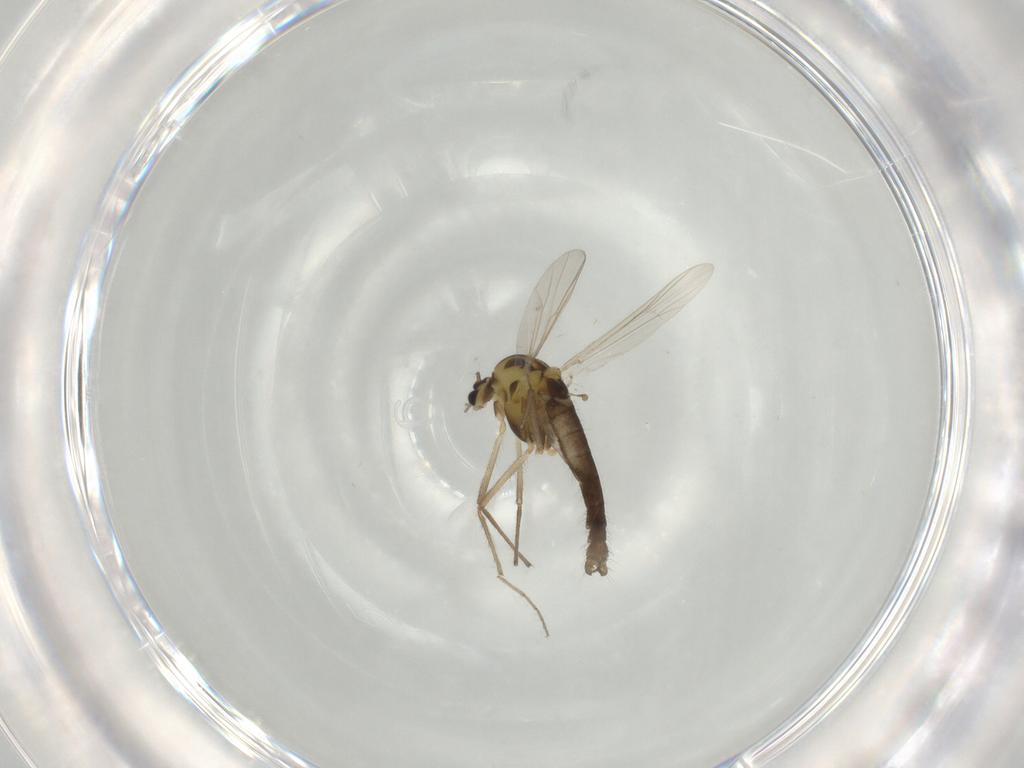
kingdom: Animalia
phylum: Arthropoda
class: Insecta
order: Diptera
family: Chironomidae
